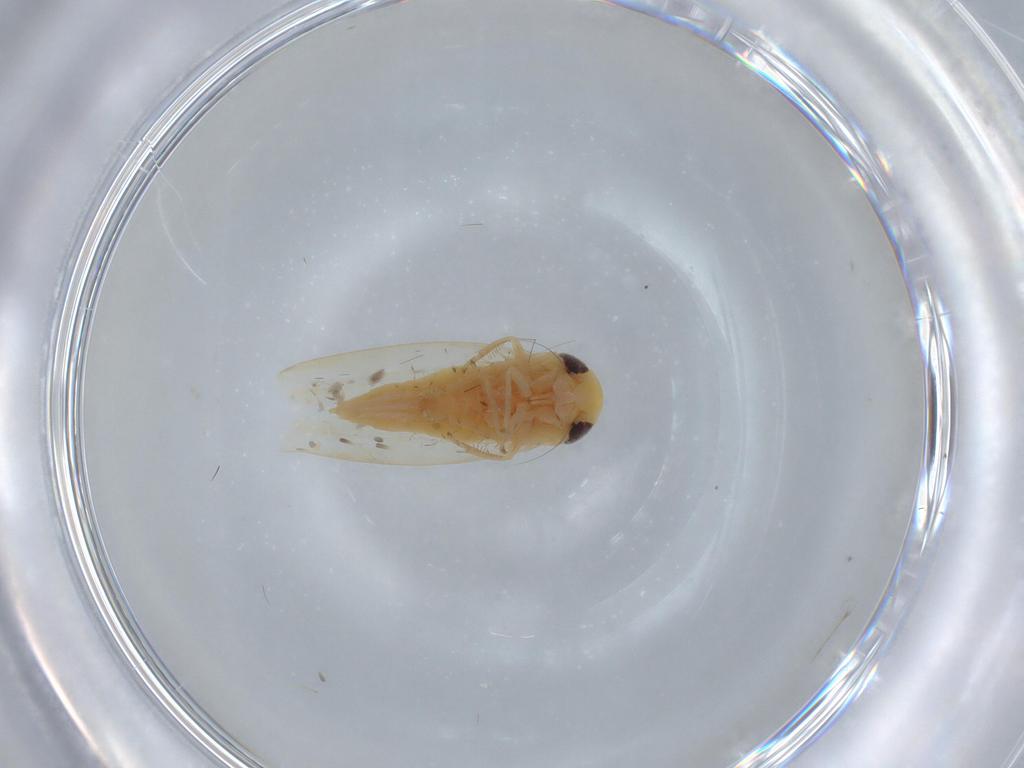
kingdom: Animalia
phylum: Arthropoda
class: Insecta
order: Hemiptera
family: Cicadellidae
